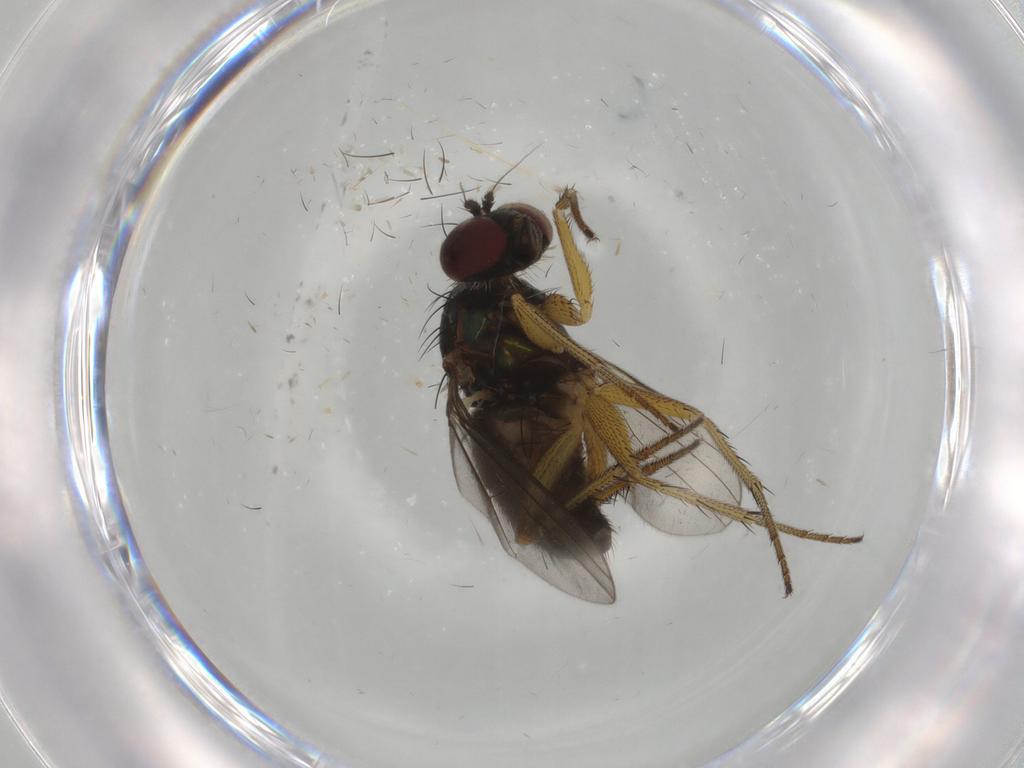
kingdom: Animalia
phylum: Arthropoda
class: Insecta
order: Diptera
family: Dolichopodidae
